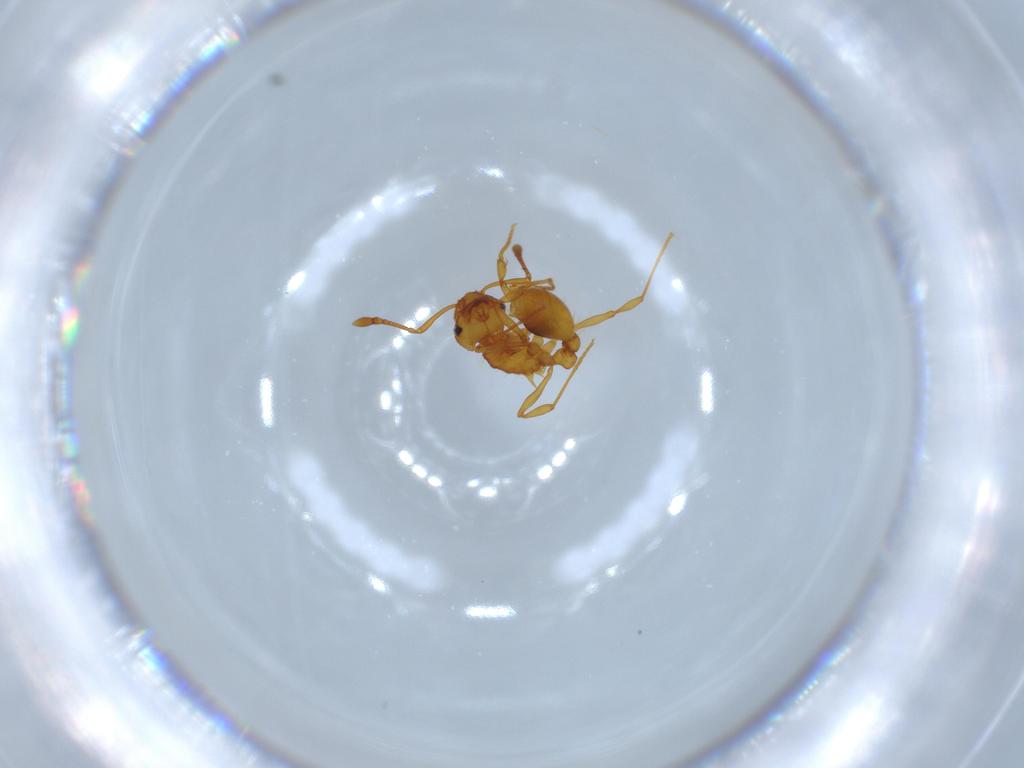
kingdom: Animalia
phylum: Arthropoda
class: Insecta
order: Hymenoptera
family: Formicidae
